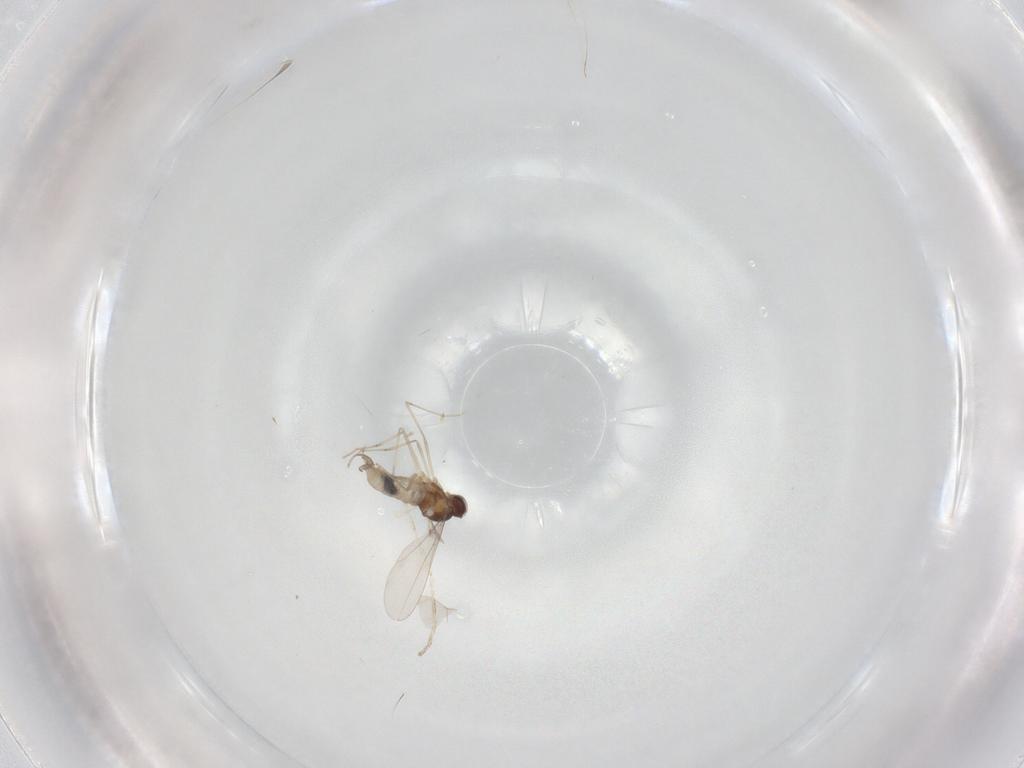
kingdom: Animalia
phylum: Arthropoda
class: Insecta
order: Diptera
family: Cecidomyiidae
